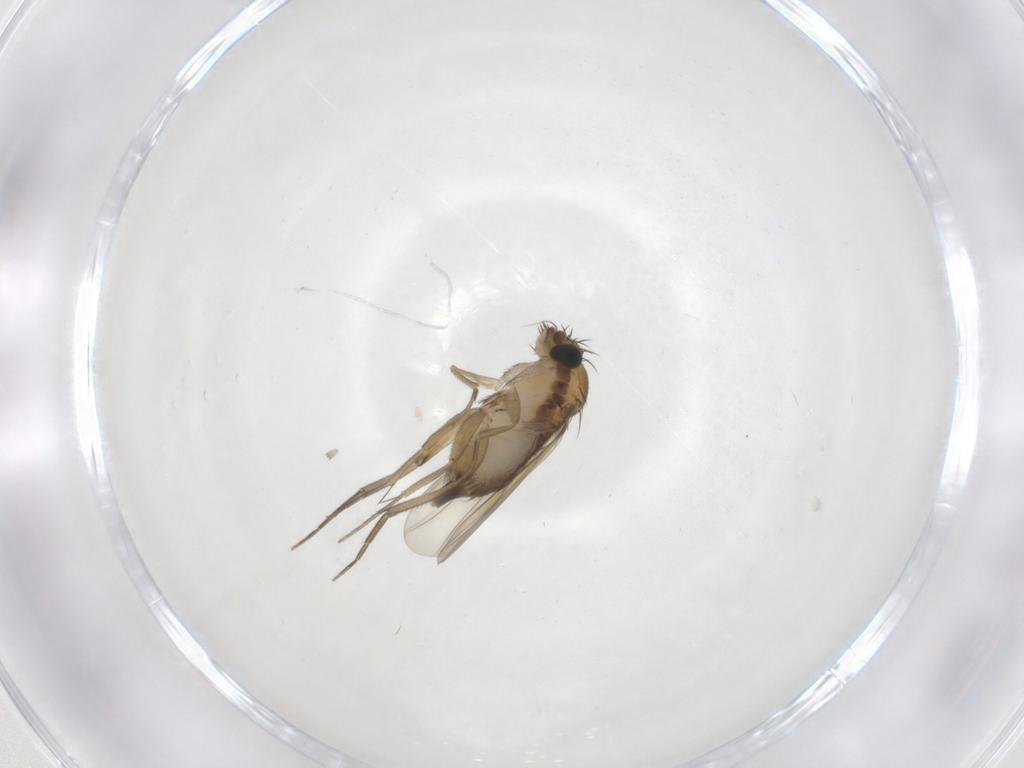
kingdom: Animalia
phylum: Arthropoda
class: Insecta
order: Diptera
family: Phoridae
